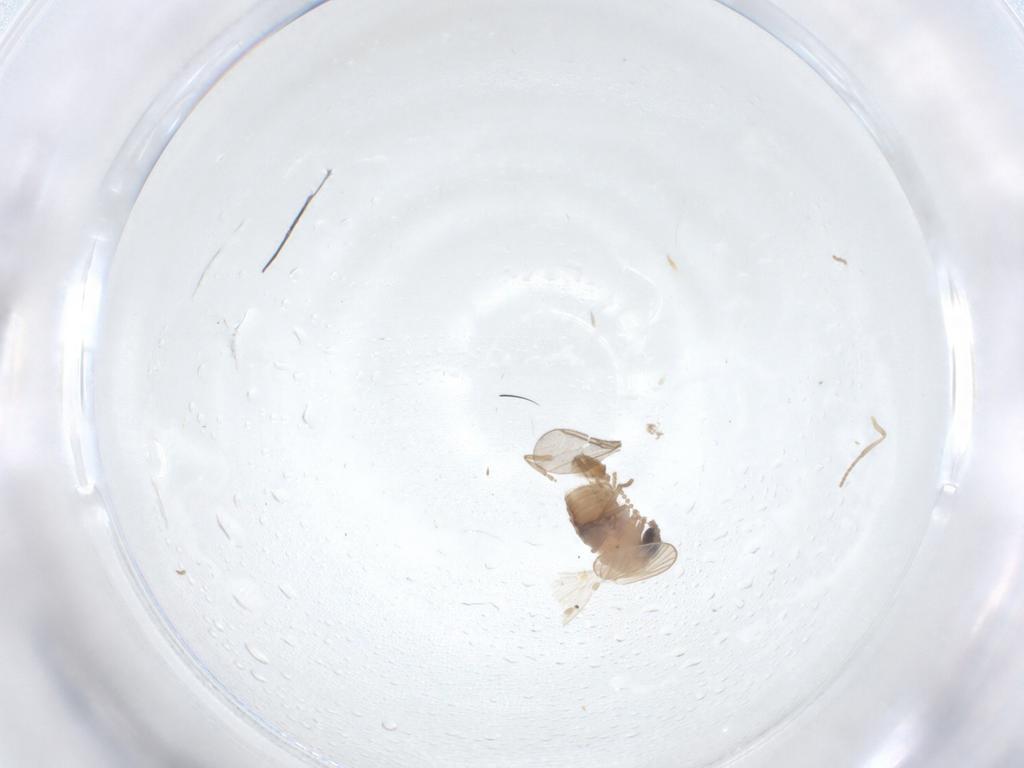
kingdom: Animalia
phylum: Arthropoda
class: Insecta
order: Diptera
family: Psychodidae
